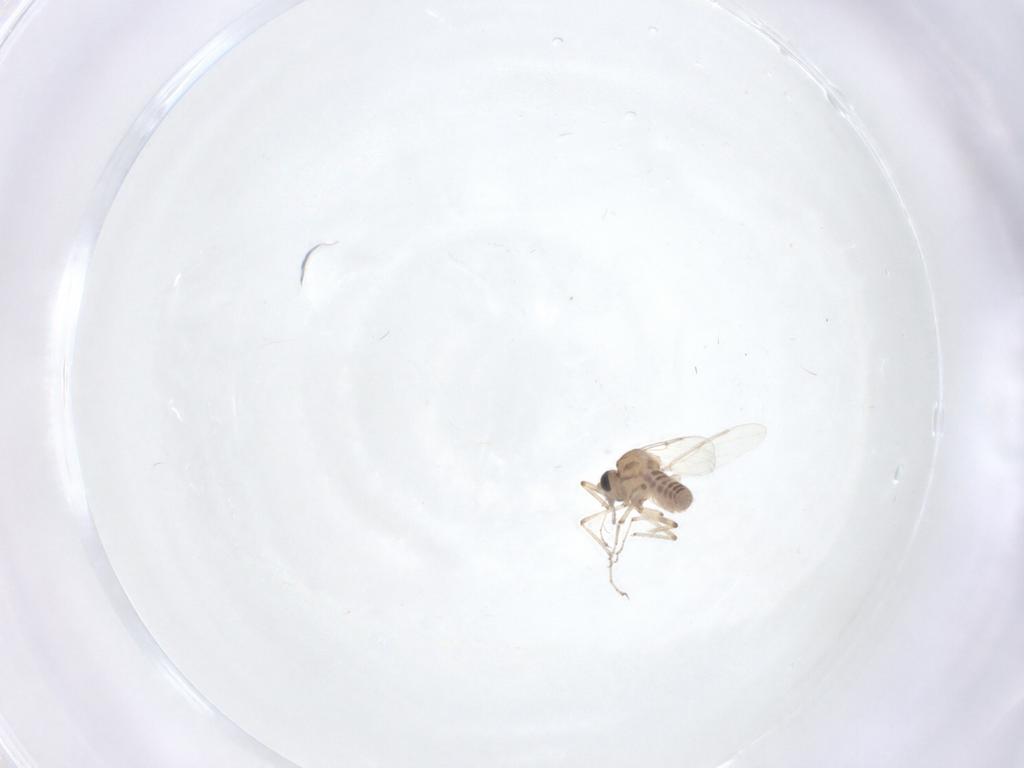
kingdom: Animalia
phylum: Arthropoda
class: Insecta
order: Diptera
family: Ceratopogonidae
